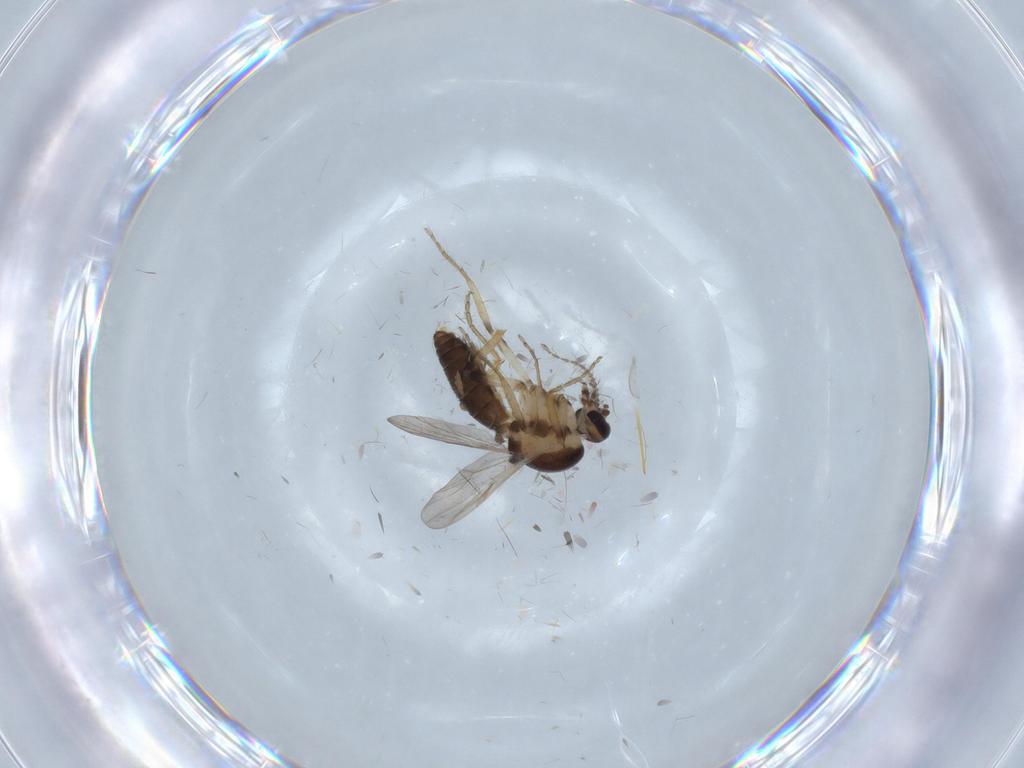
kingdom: Animalia
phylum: Arthropoda
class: Insecta
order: Diptera
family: Ceratopogonidae
